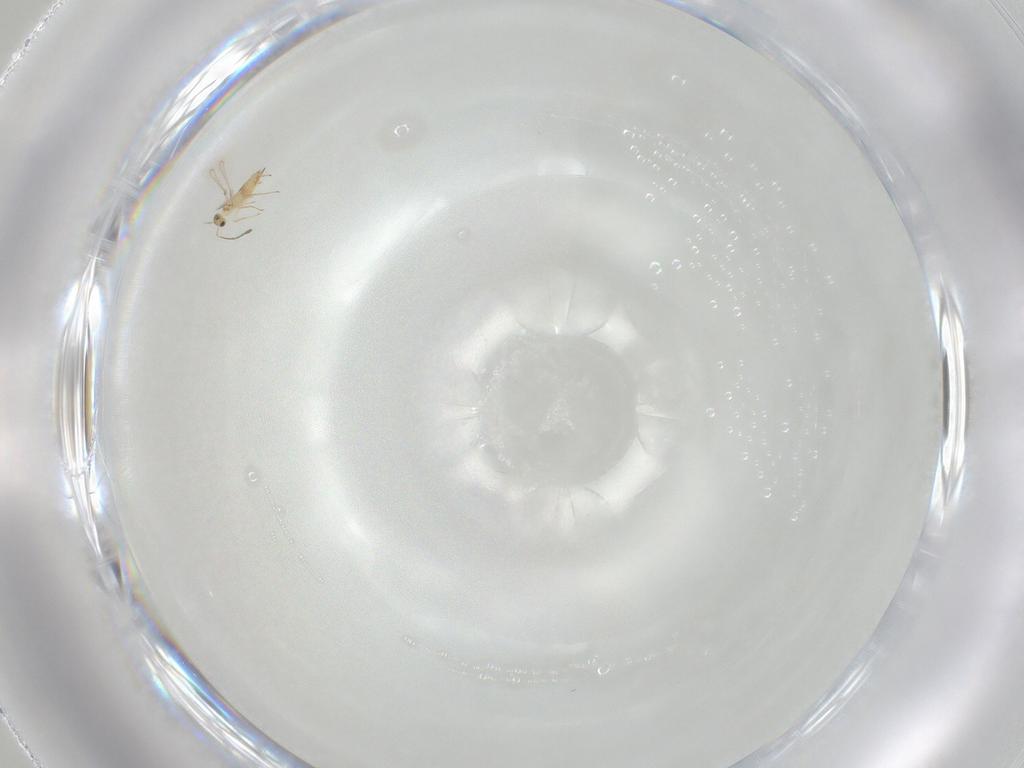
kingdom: Animalia
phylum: Arthropoda
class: Insecta
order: Hymenoptera
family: Mymaridae
